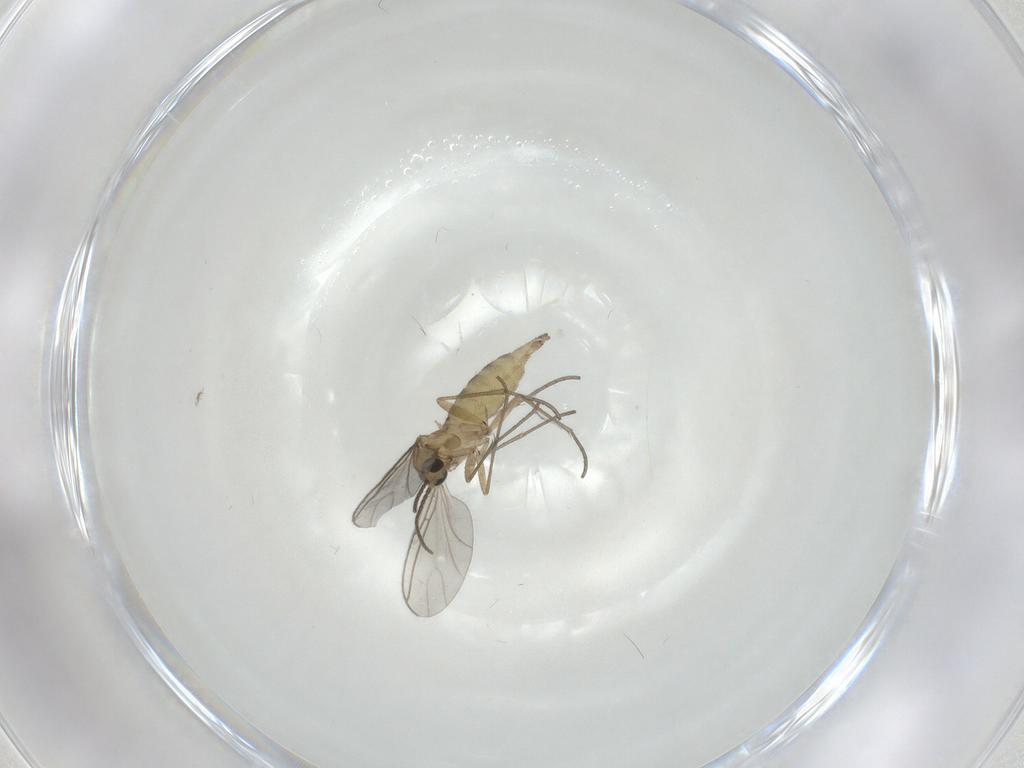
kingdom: Animalia
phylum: Arthropoda
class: Insecta
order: Diptera
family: Sciaridae
